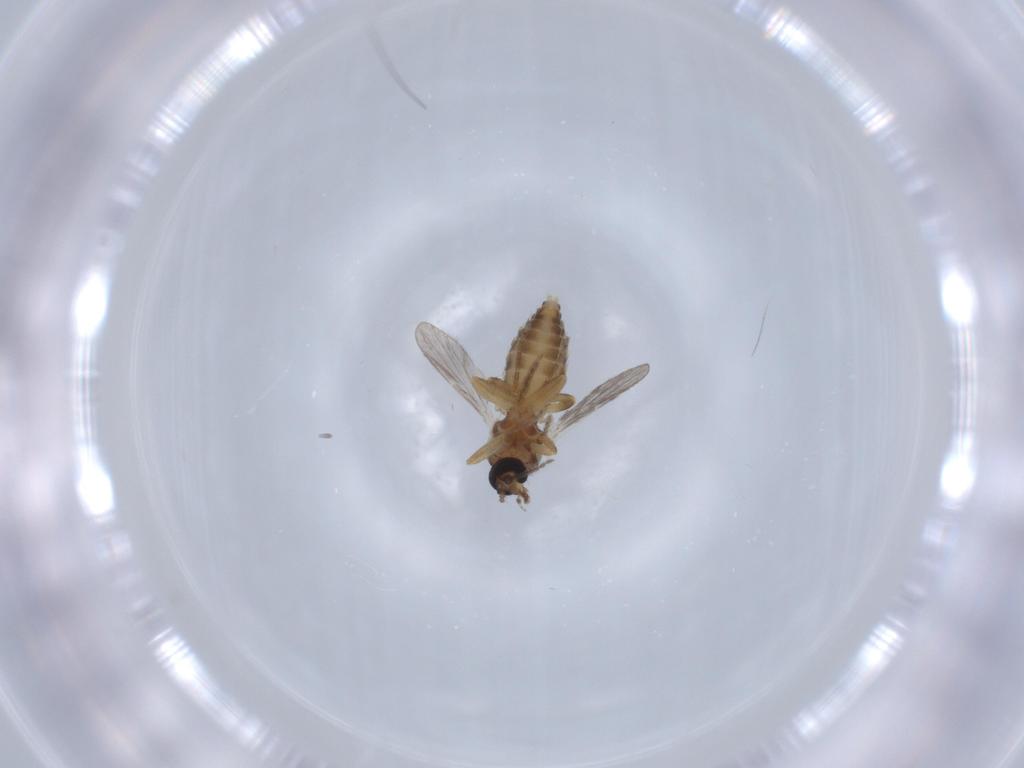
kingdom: Animalia
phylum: Arthropoda
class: Insecta
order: Diptera
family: Ceratopogonidae
